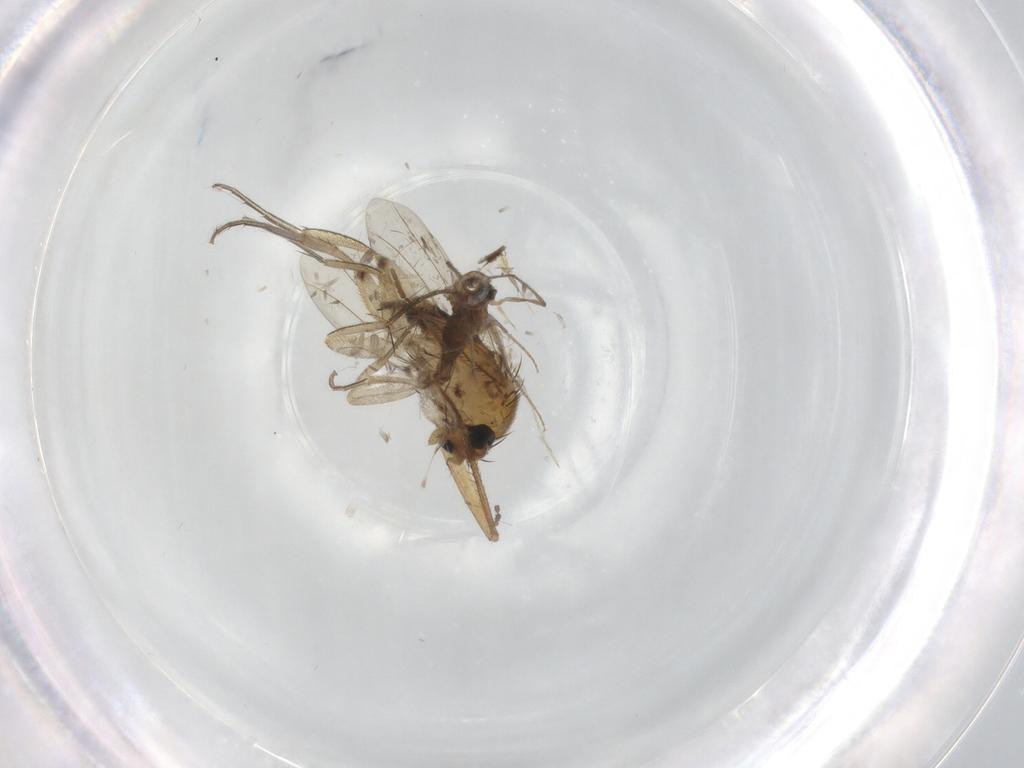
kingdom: Animalia
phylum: Arthropoda
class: Insecta
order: Diptera
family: Phoridae
